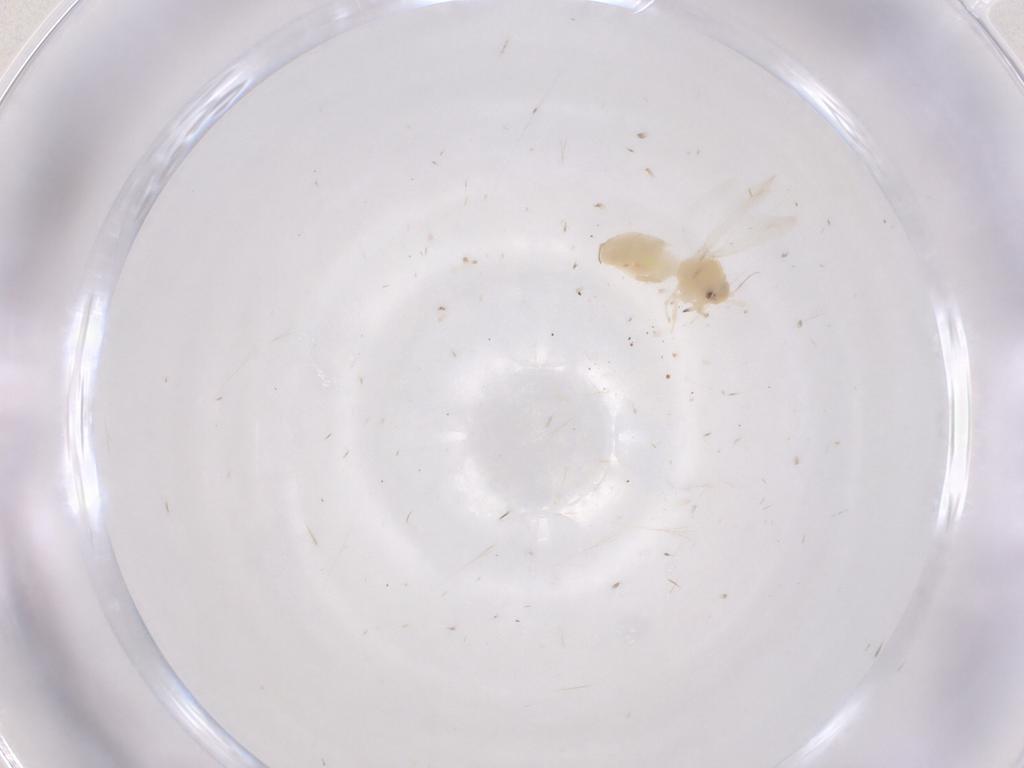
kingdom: Animalia
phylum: Arthropoda
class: Insecta
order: Hemiptera
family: Aleyrodidae
